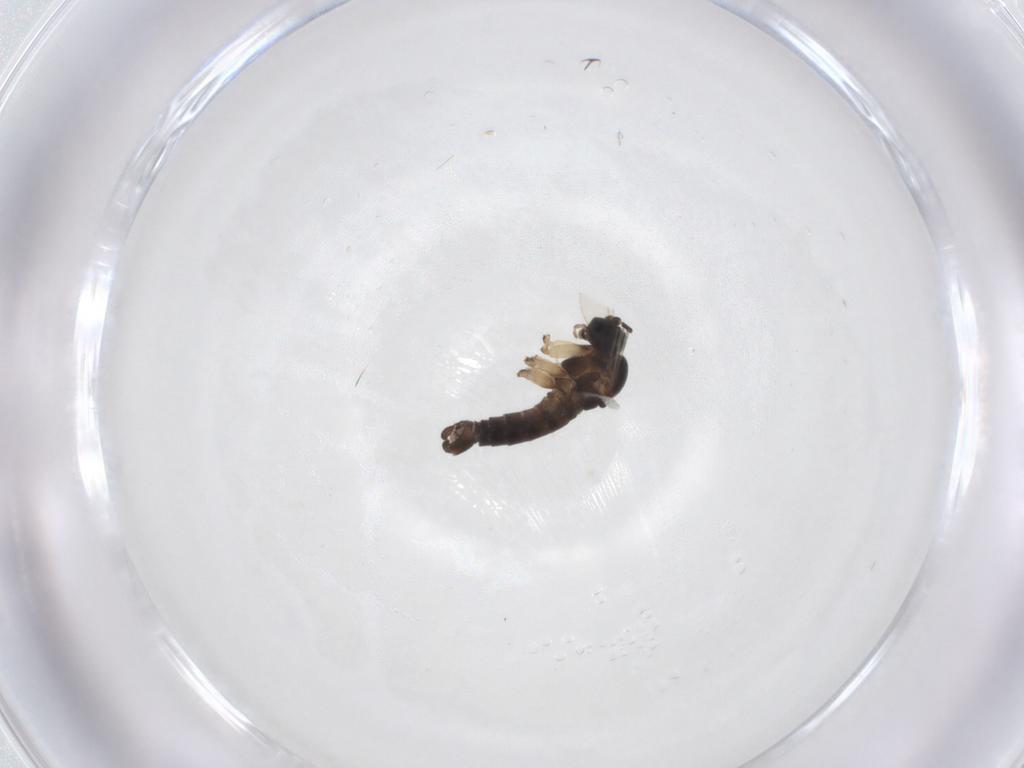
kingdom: Animalia
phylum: Arthropoda
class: Insecta
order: Diptera
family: Sciaridae
